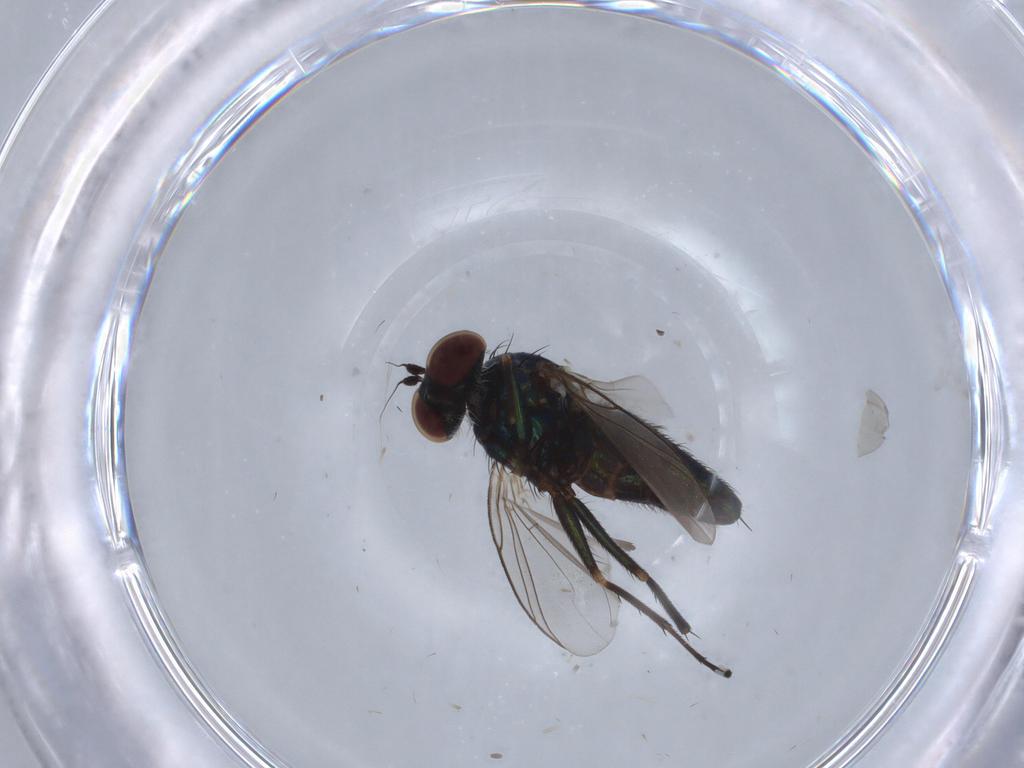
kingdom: Animalia
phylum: Arthropoda
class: Insecta
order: Diptera
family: Dolichopodidae
